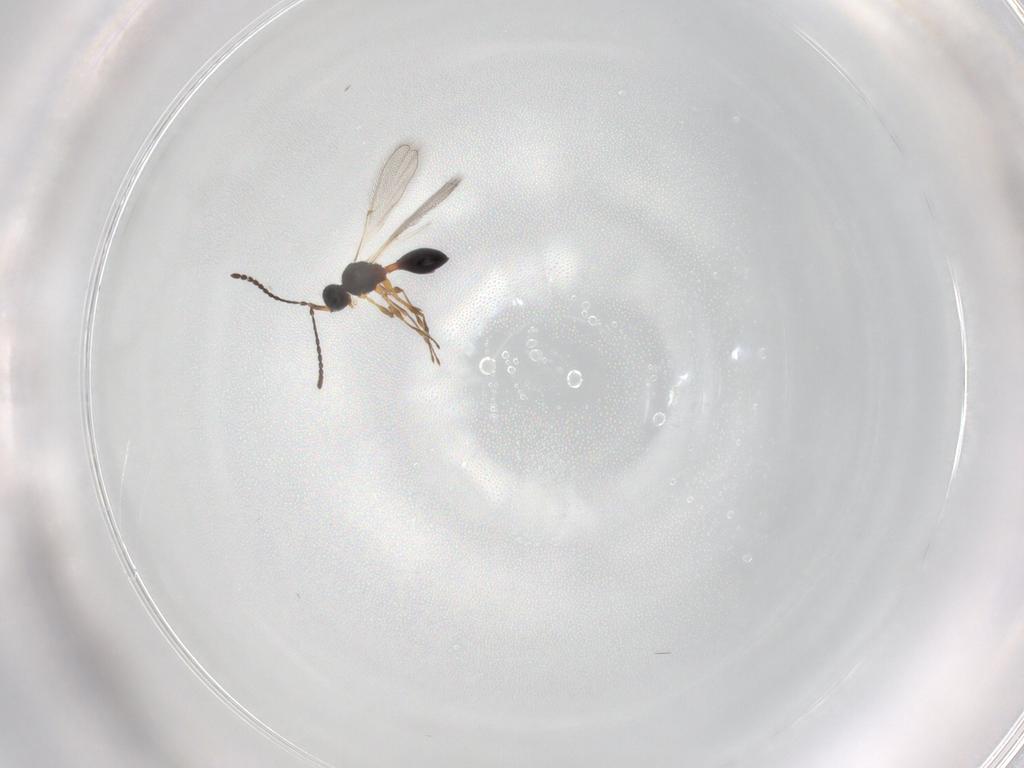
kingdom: Animalia
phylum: Arthropoda
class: Insecta
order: Hymenoptera
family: Diapriidae
